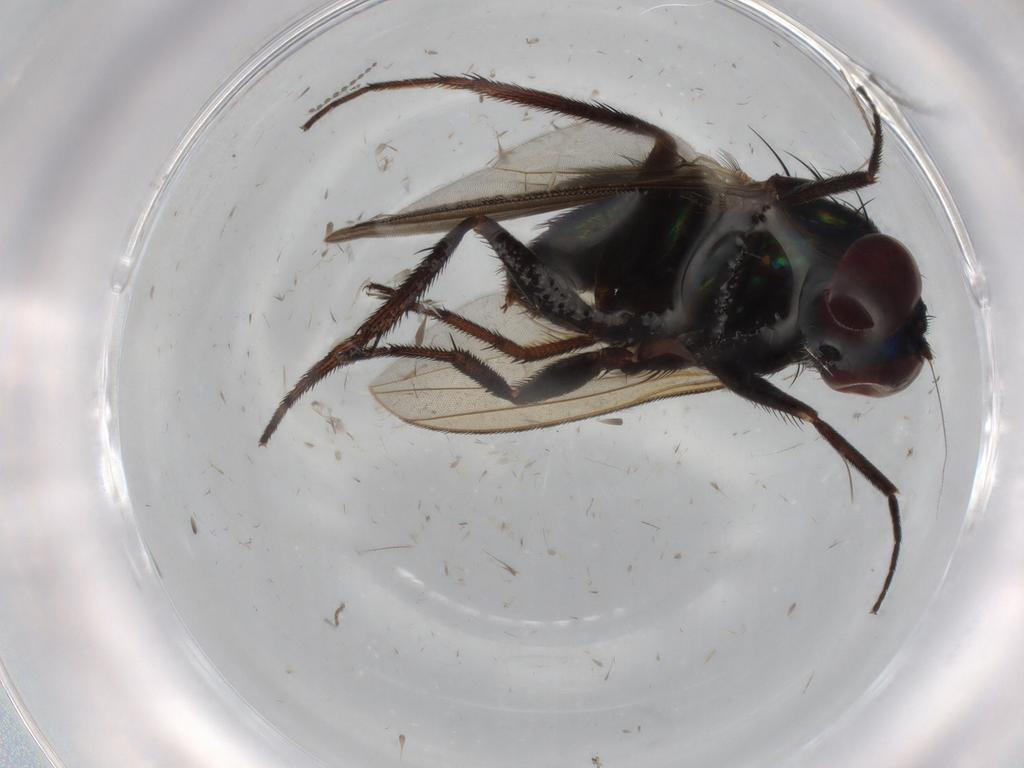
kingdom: Animalia
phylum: Arthropoda
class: Insecta
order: Diptera
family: Dolichopodidae
